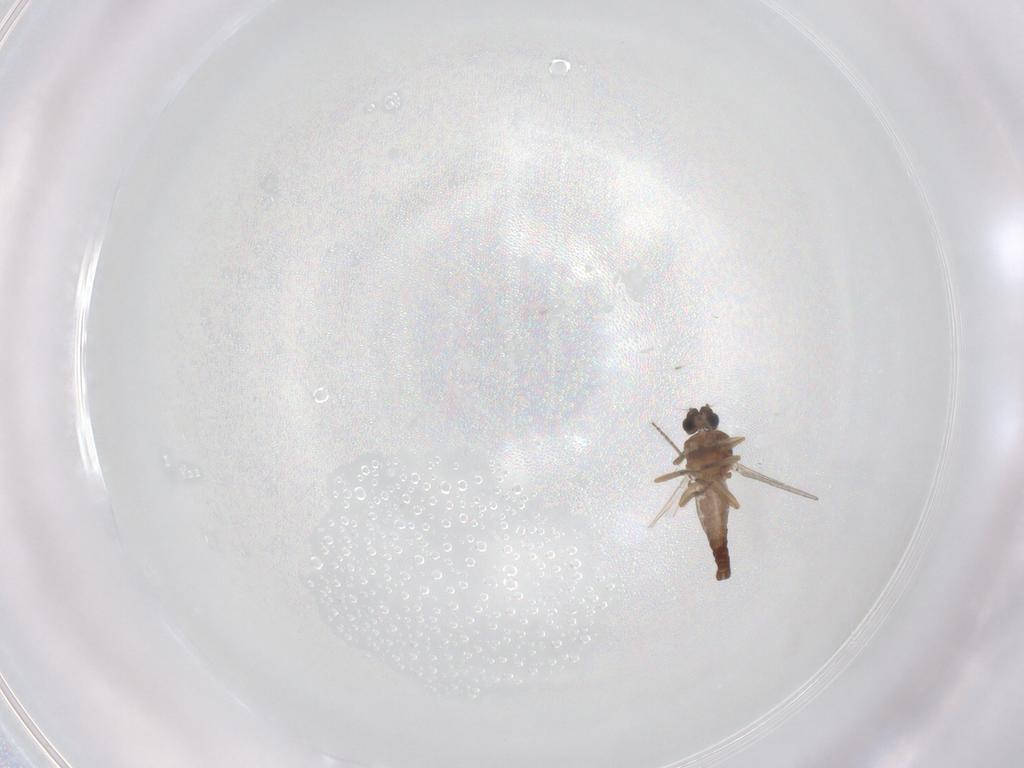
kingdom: Animalia
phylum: Arthropoda
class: Insecta
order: Diptera
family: Ceratopogonidae
